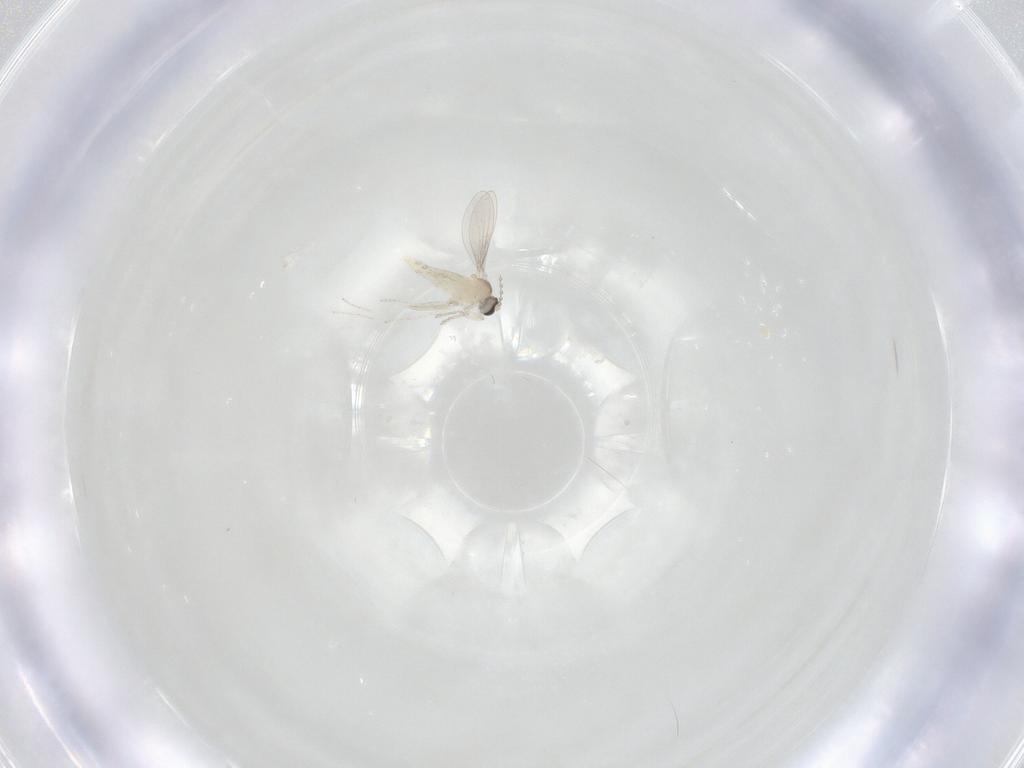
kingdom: Animalia
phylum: Arthropoda
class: Insecta
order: Diptera
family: Cecidomyiidae
